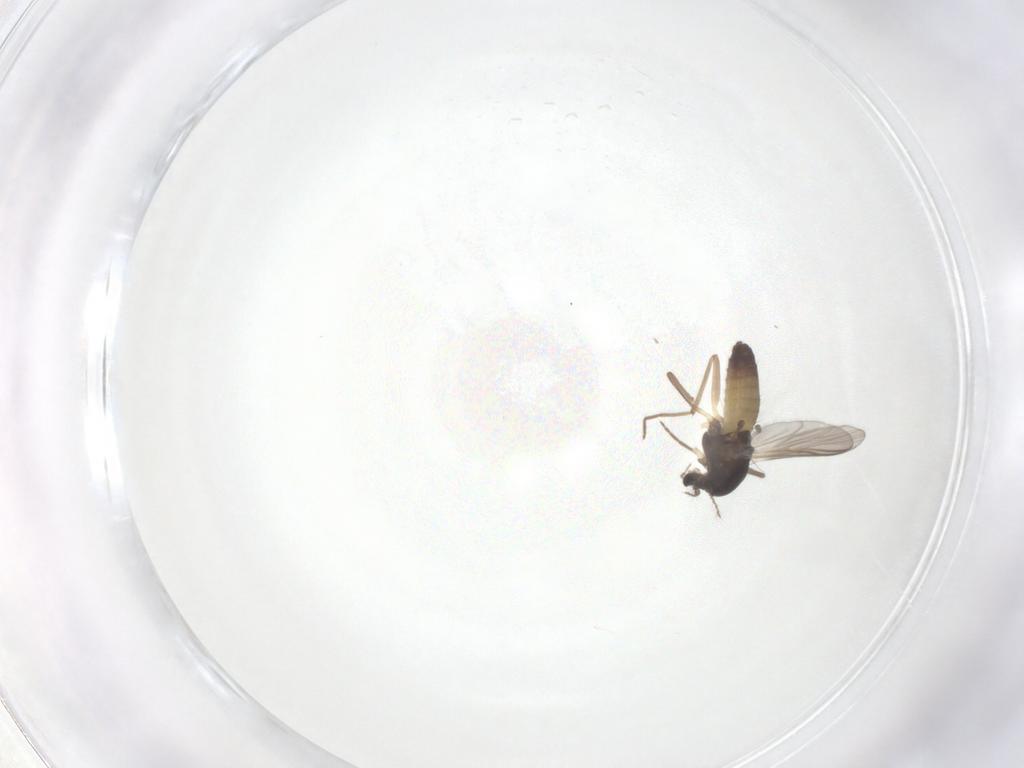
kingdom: Animalia
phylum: Arthropoda
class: Insecta
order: Diptera
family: Chironomidae
